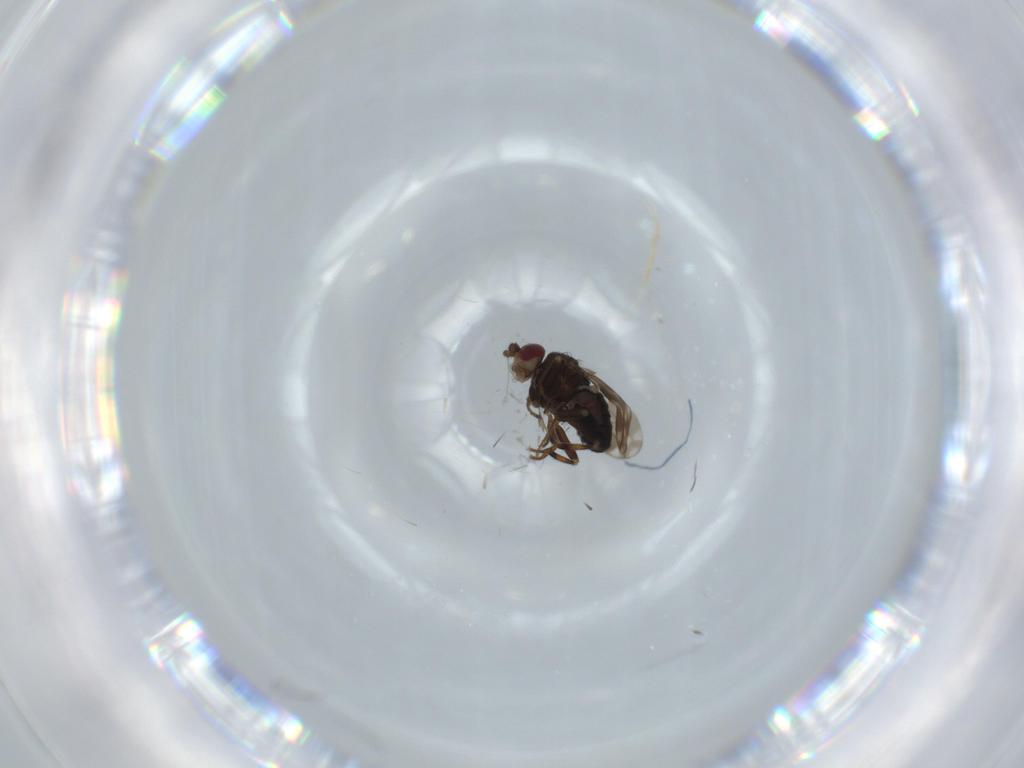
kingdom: Animalia
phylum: Arthropoda
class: Insecta
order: Diptera
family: Sphaeroceridae
